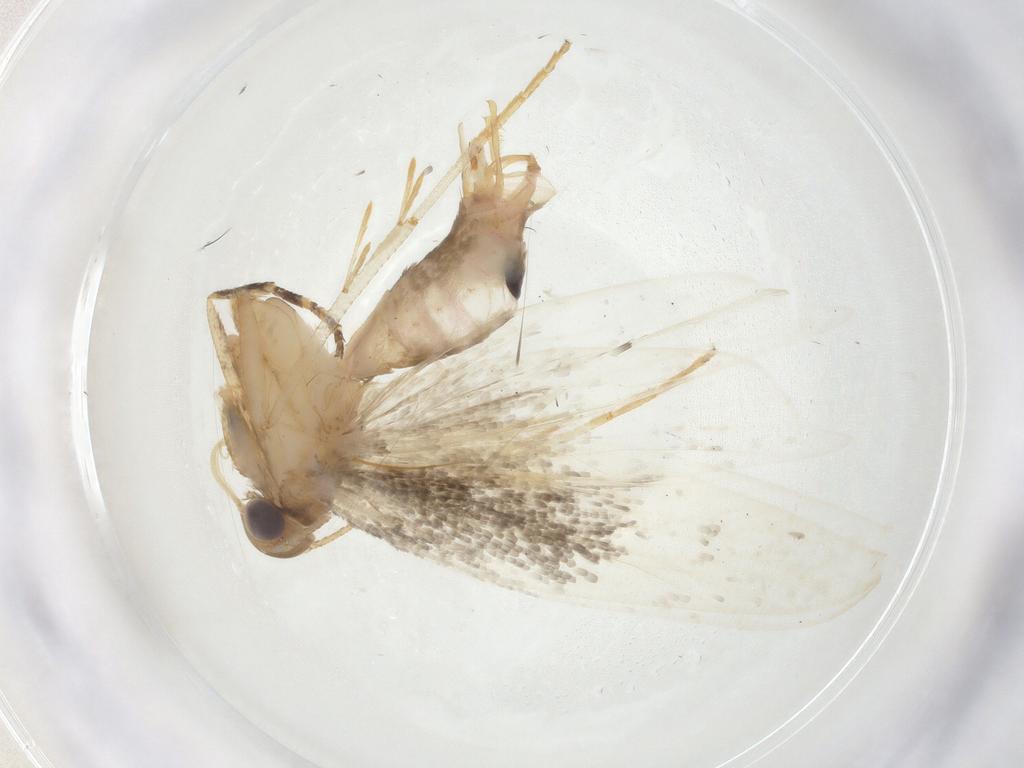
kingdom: Animalia
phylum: Arthropoda
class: Insecta
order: Lepidoptera
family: Gelechiidae
